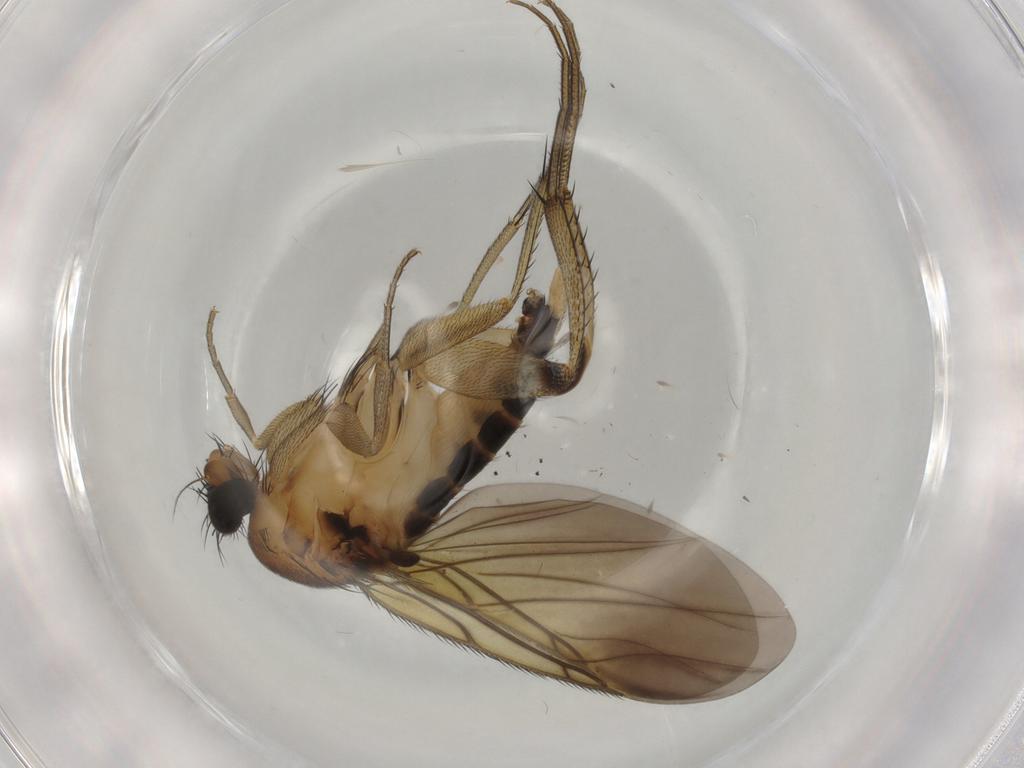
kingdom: Animalia
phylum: Arthropoda
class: Insecta
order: Diptera
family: Phoridae
